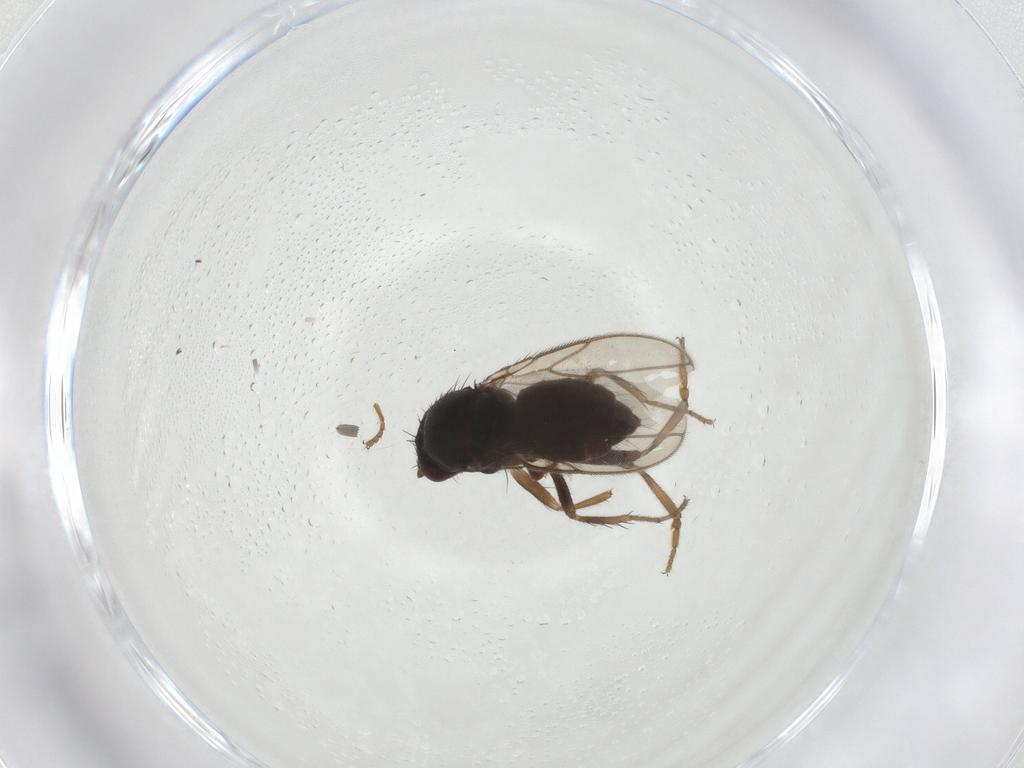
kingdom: Animalia
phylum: Arthropoda
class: Insecta
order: Diptera
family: Sphaeroceridae
